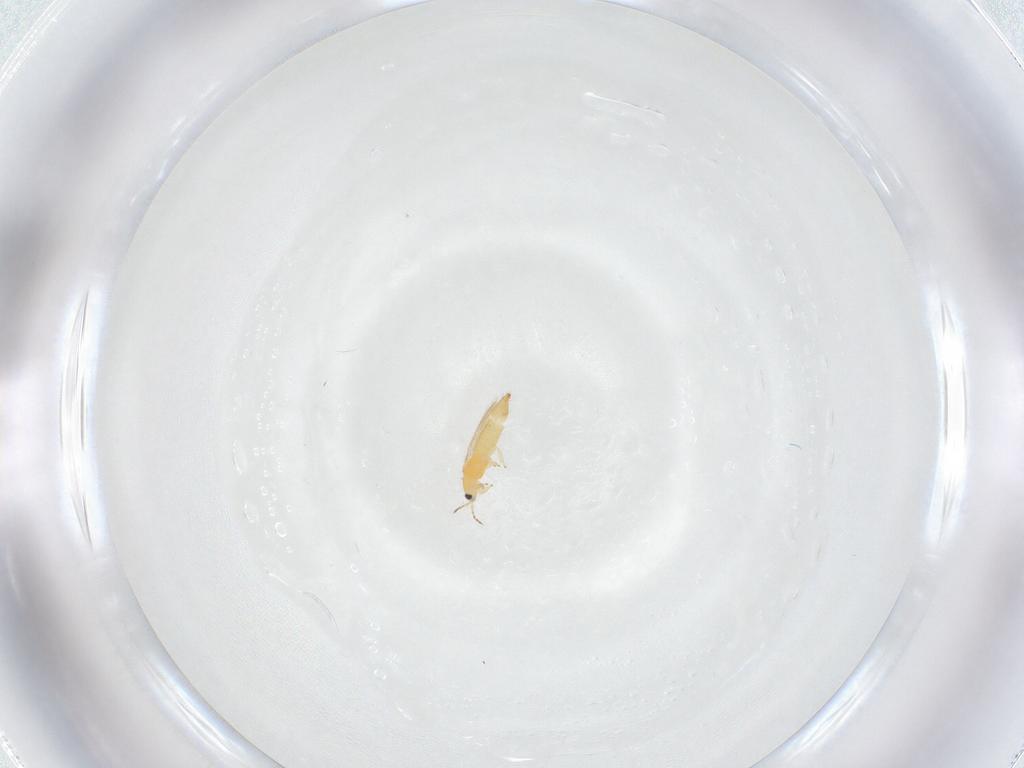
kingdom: Animalia
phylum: Arthropoda
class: Insecta
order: Thysanoptera
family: Thripidae
